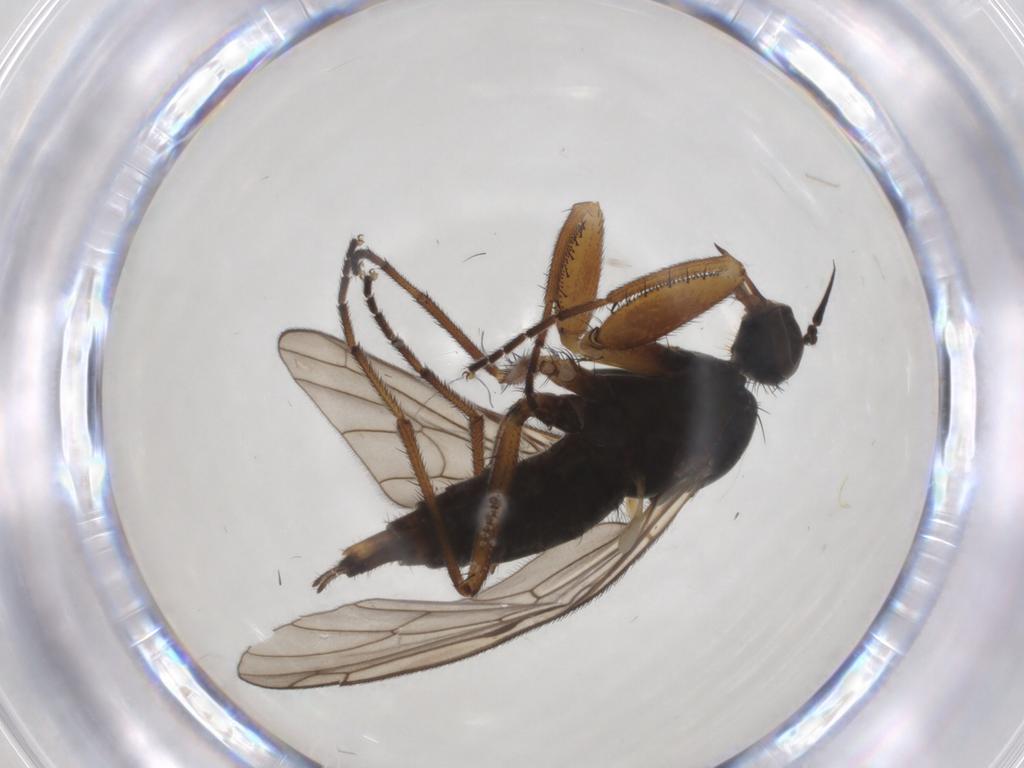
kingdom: Animalia
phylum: Arthropoda
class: Insecta
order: Diptera
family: Chironomidae
